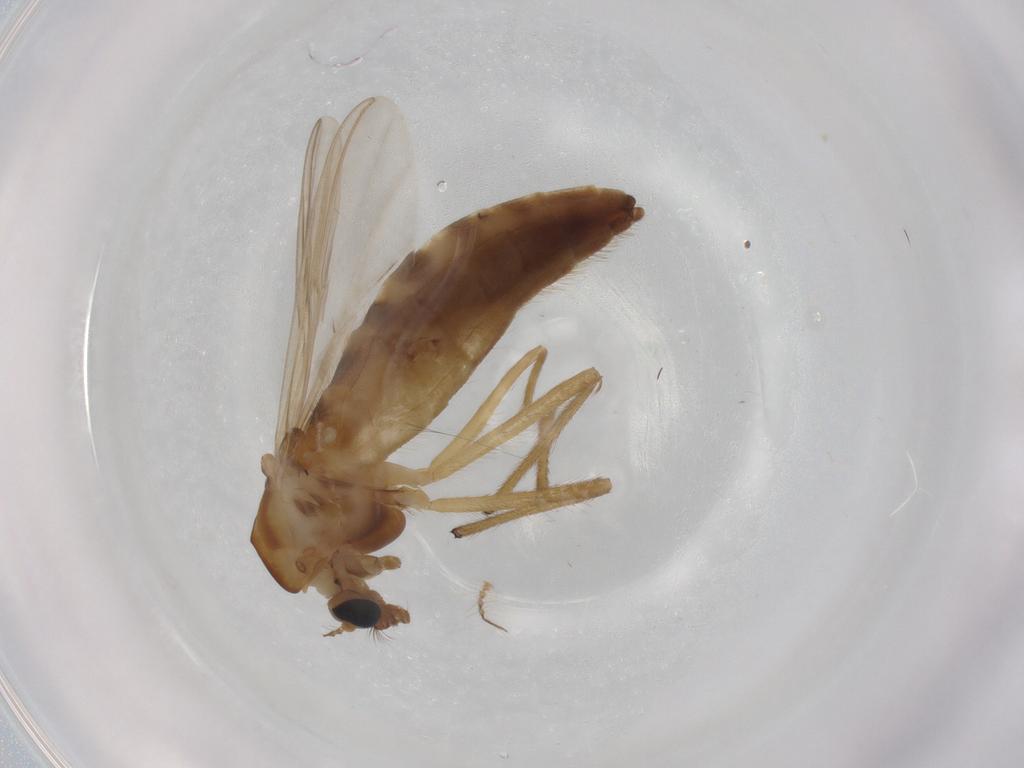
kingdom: Animalia
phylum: Arthropoda
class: Insecta
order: Diptera
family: Chironomidae
